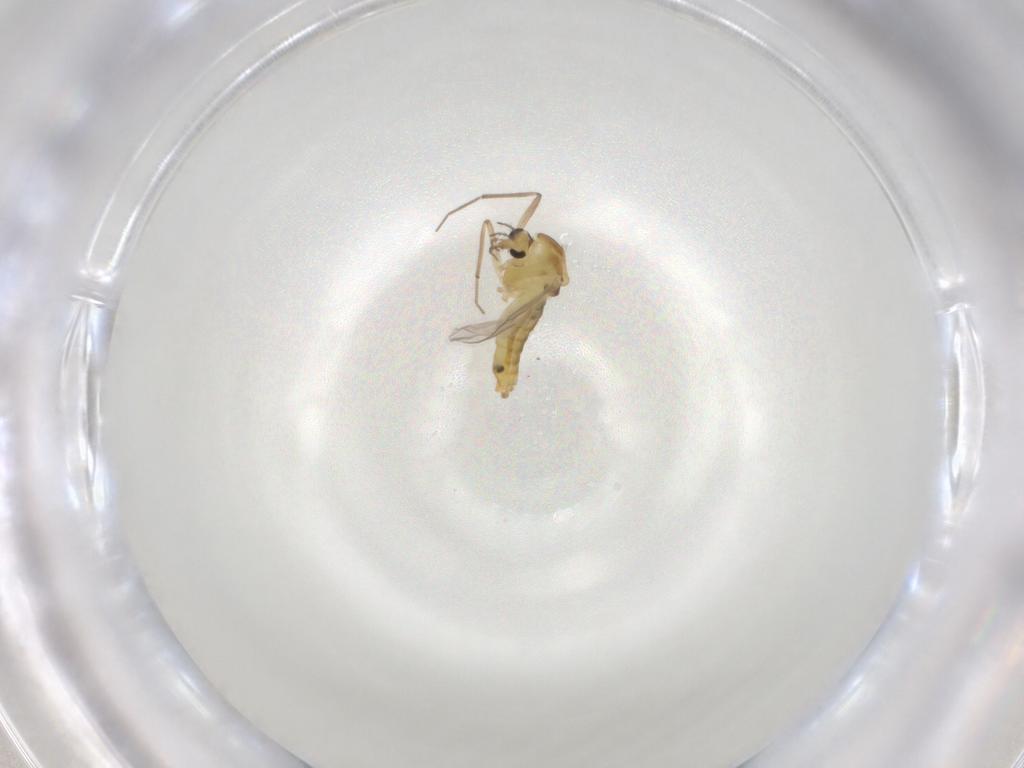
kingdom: Animalia
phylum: Arthropoda
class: Insecta
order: Diptera
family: Chironomidae
